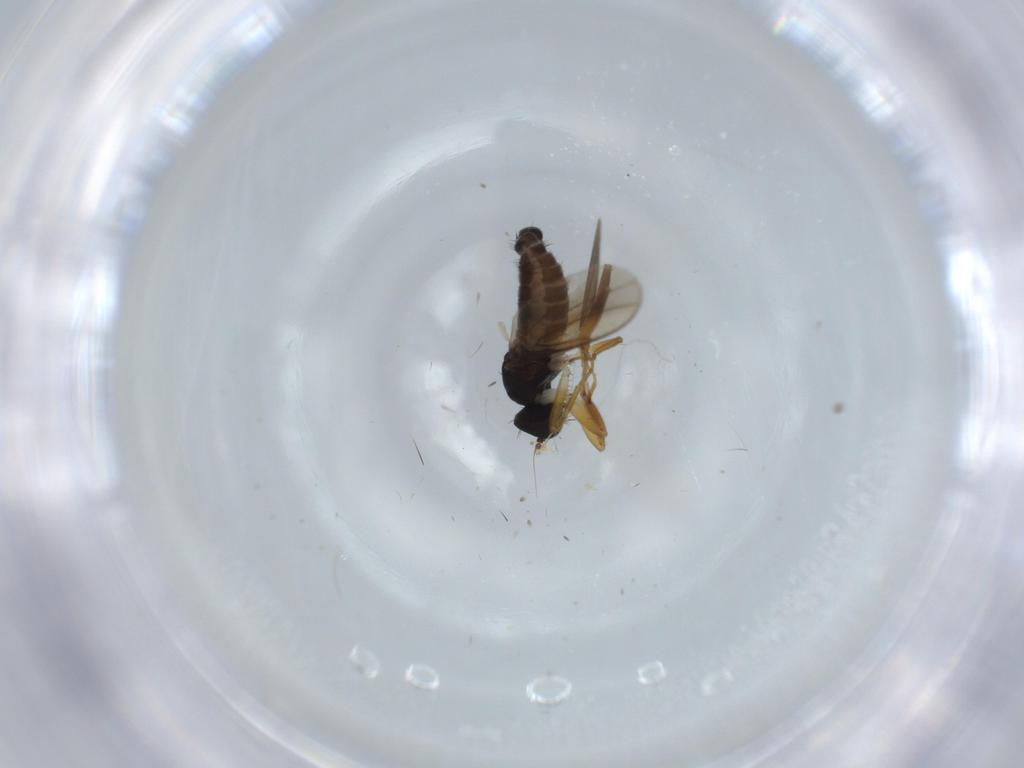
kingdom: Animalia
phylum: Arthropoda
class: Insecta
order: Diptera
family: Hybotidae
